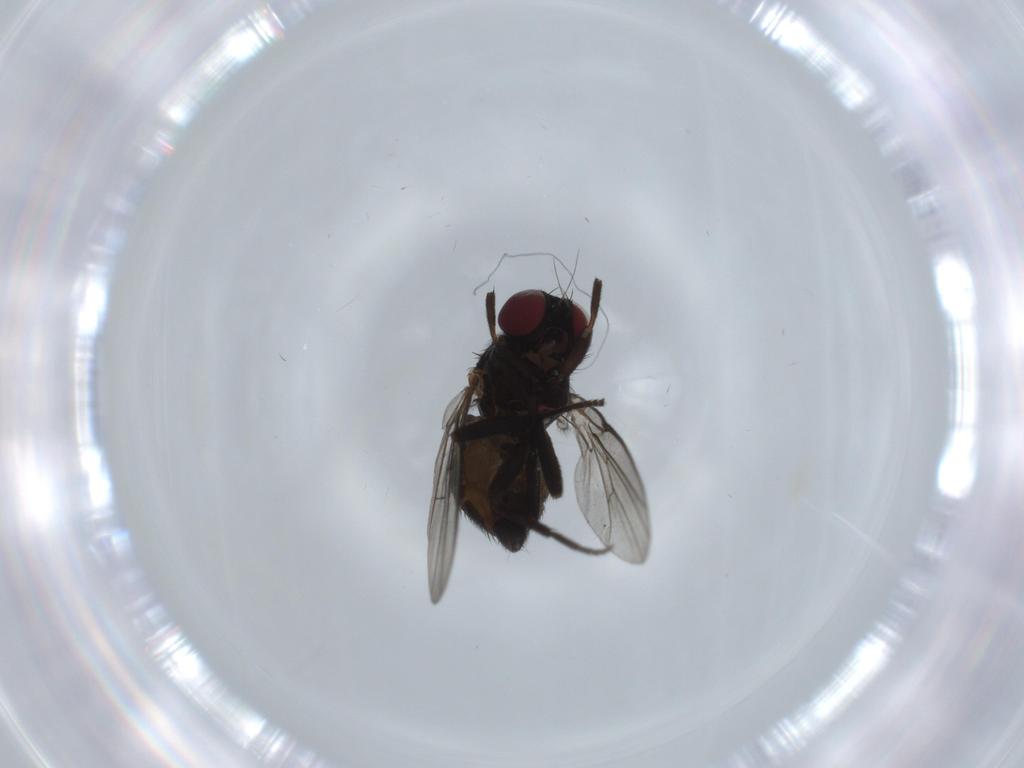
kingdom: Animalia
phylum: Arthropoda
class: Insecta
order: Diptera
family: Agromyzidae
